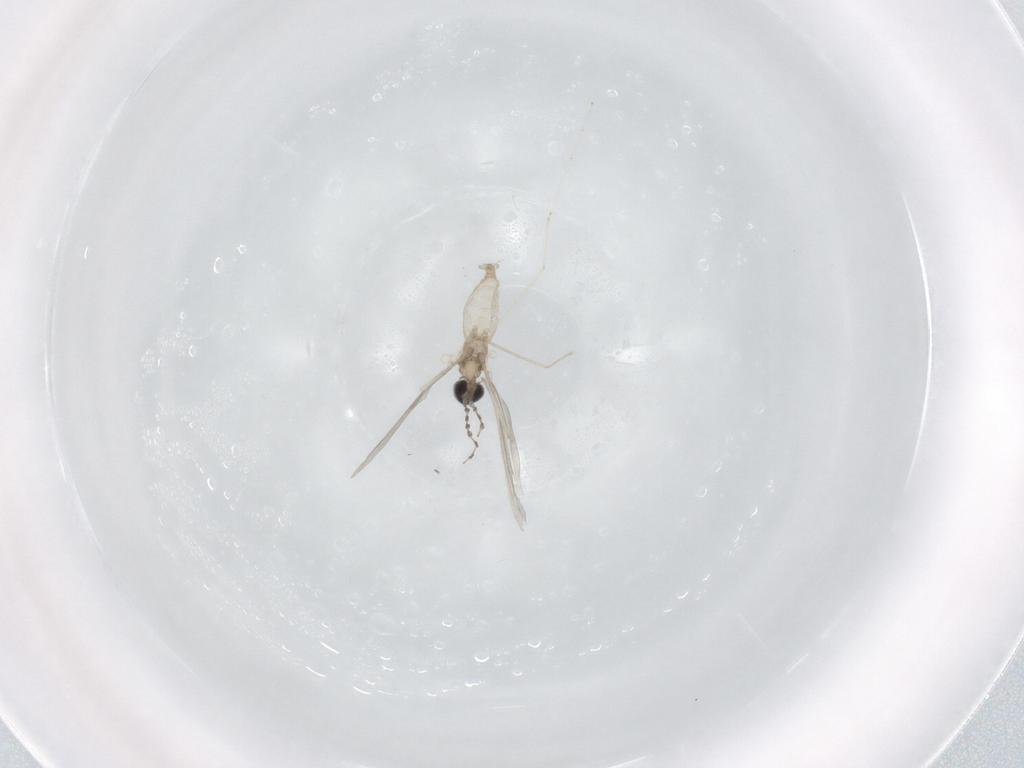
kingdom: Animalia
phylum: Arthropoda
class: Insecta
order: Diptera
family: Cecidomyiidae
